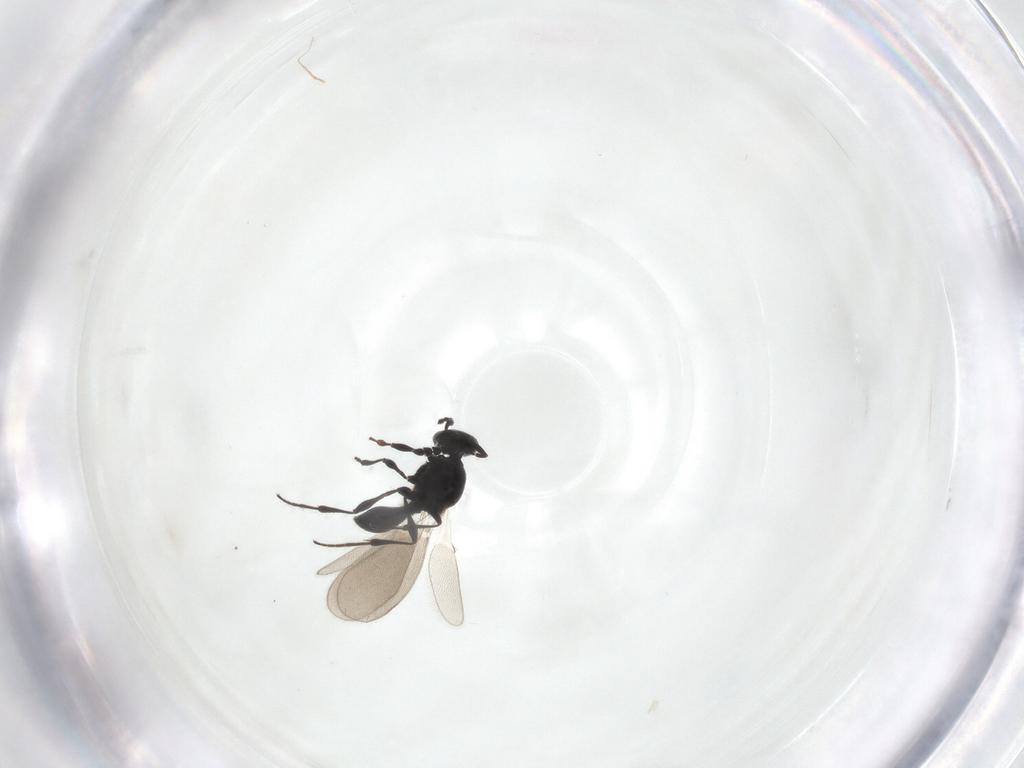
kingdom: Animalia
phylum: Arthropoda
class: Insecta
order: Hymenoptera
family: Platygastridae
